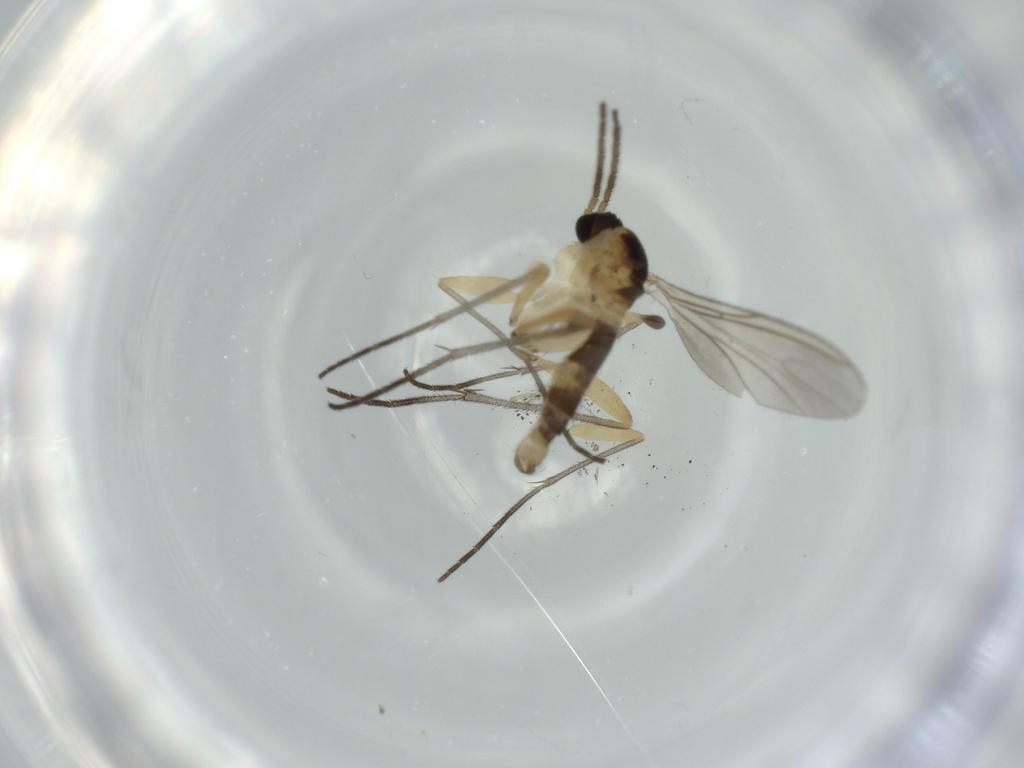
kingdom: Animalia
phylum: Arthropoda
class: Insecta
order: Diptera
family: Sciaridae
